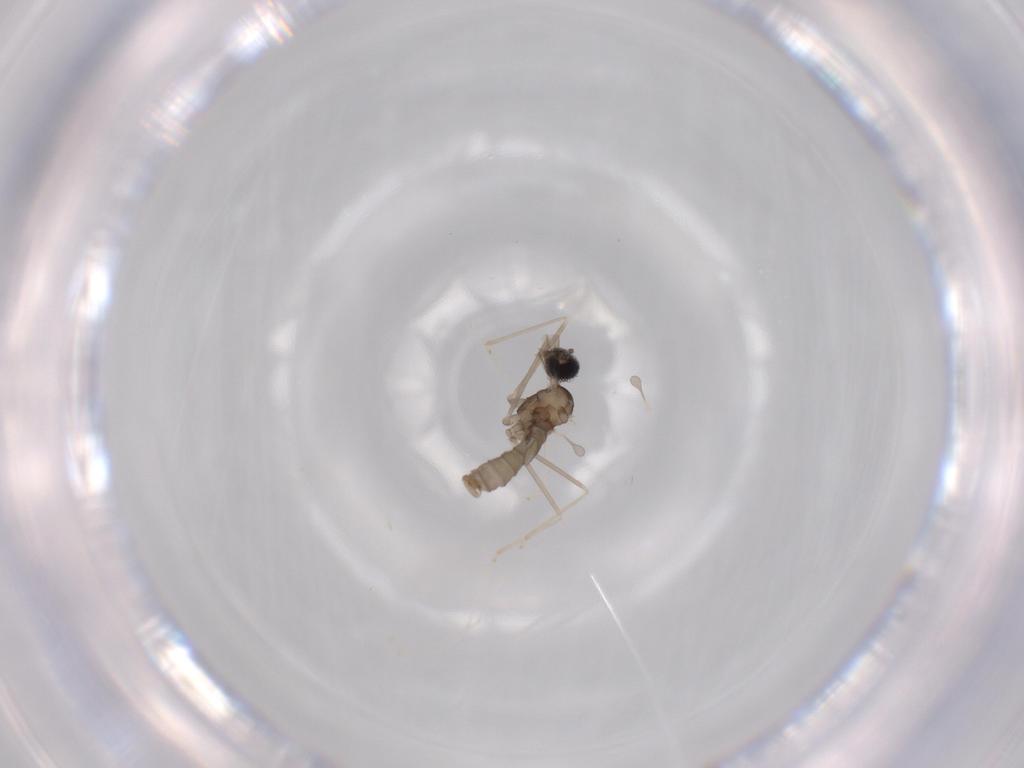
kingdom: Animalia
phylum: Arthropoda
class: Insecta
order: Diptera
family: Cecidomyiidae
